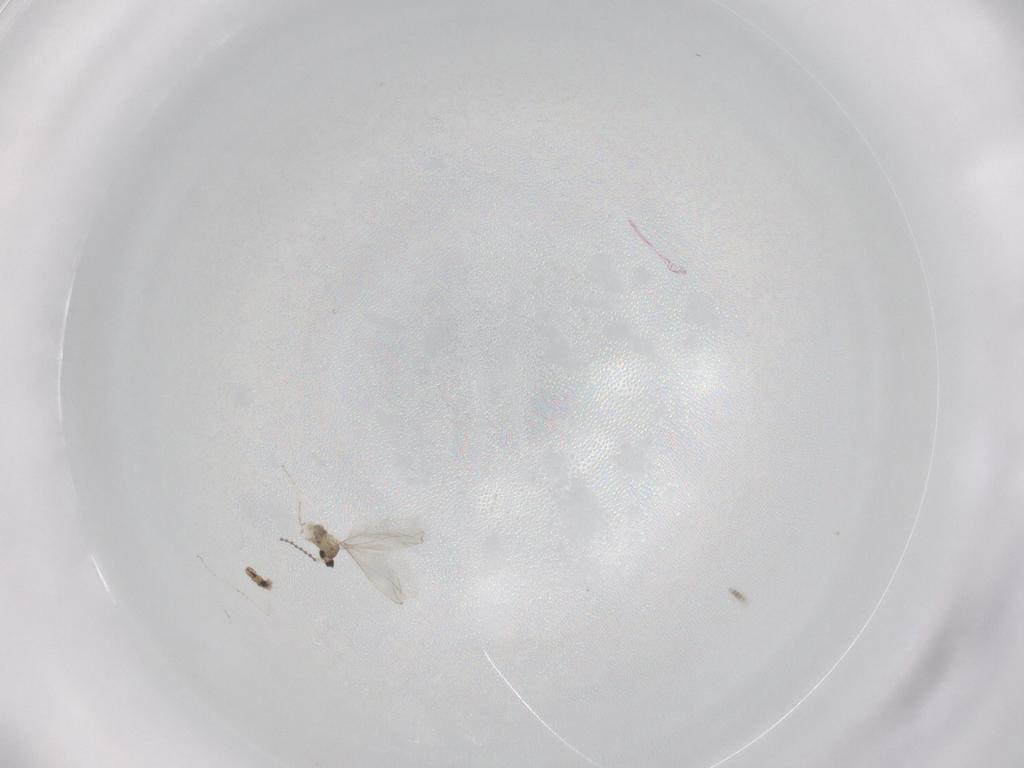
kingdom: Animalia
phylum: Arthropoda
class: Insecta
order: Diptera
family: Cecidomyiidae
